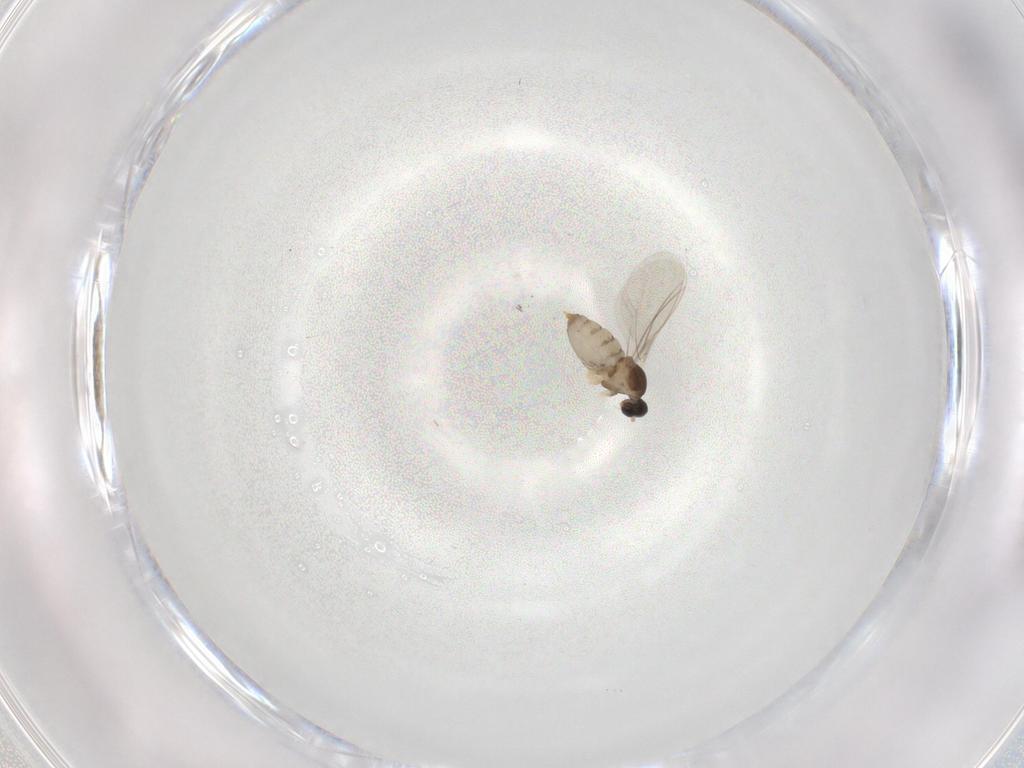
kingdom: Animalia
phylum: Arthropoda
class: Insecta
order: Diptera
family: Cecidomyiidae
